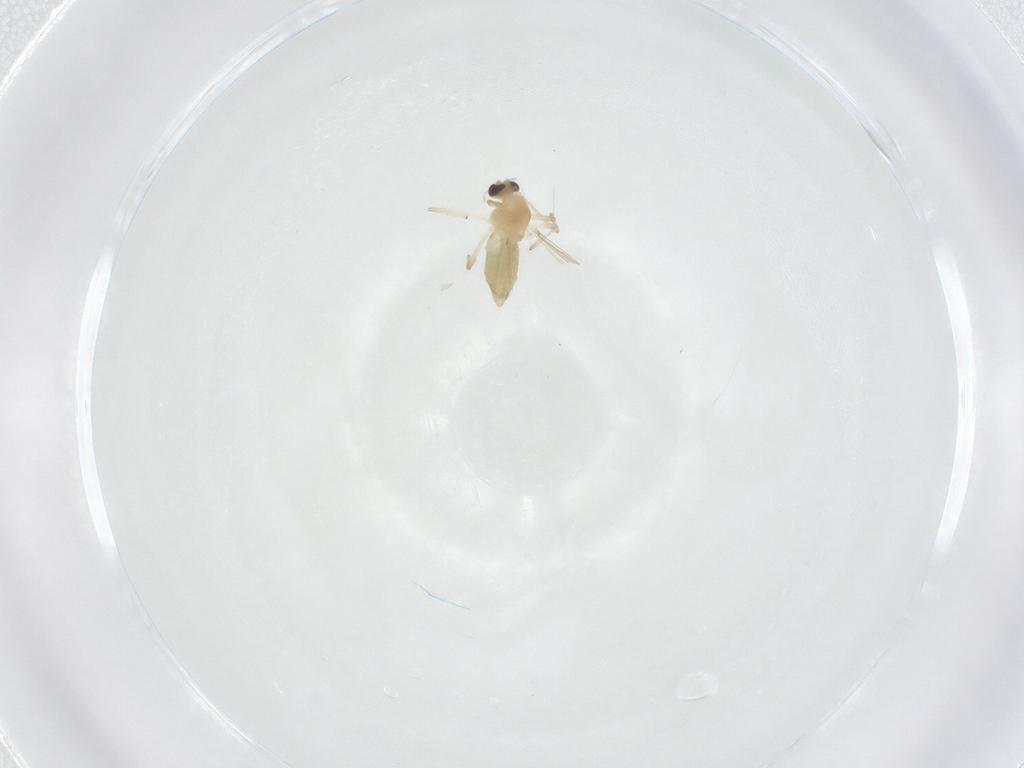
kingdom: Animalia
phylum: Arthropoda
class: Insecta
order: Diptera
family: Chironomidae
